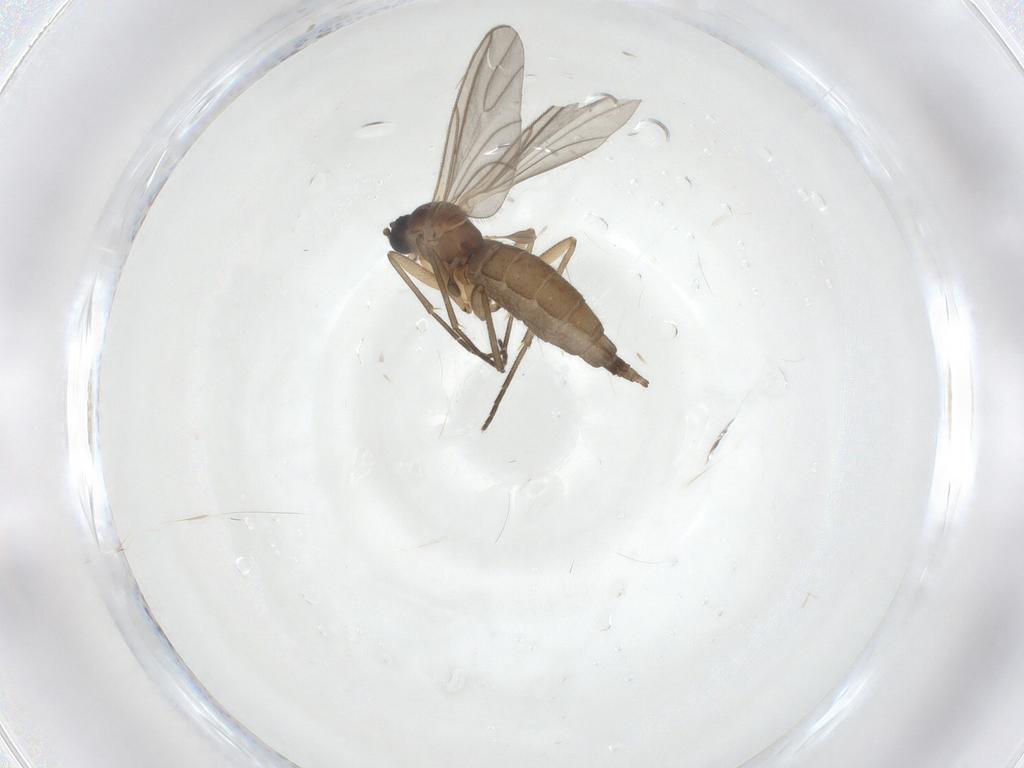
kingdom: Animalia
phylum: Arthropoda
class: Insecta
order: Diptera
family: Sciaridae
